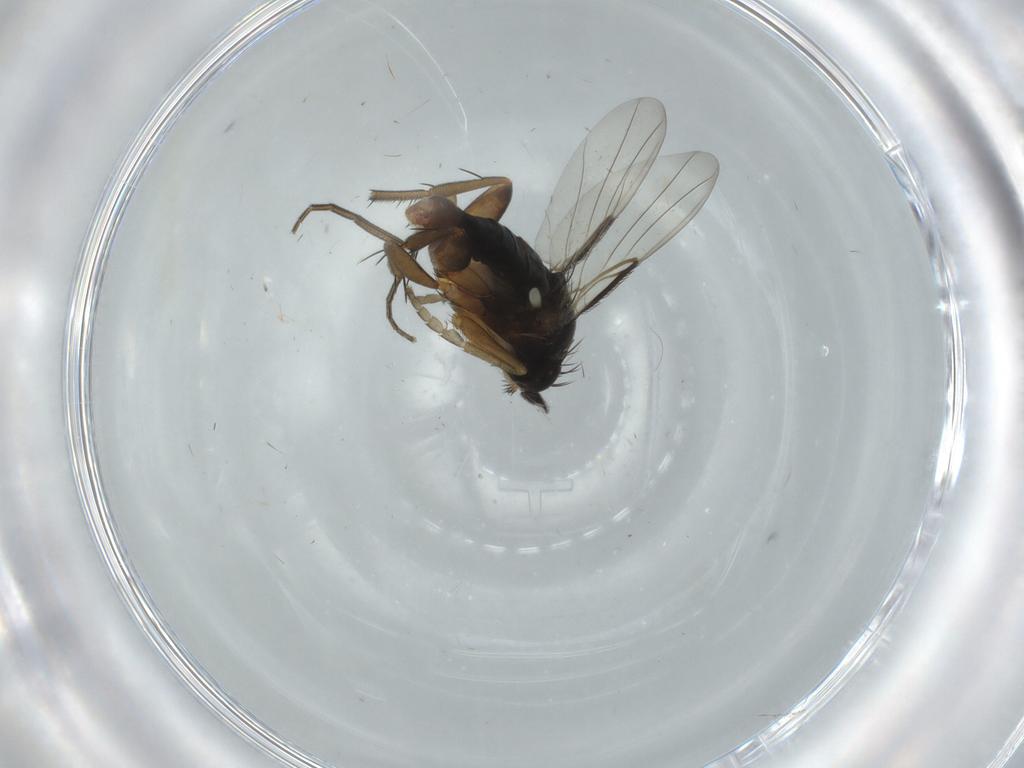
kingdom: Animalia
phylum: Arthropoda
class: Insecta
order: Diptera
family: Phoridae
